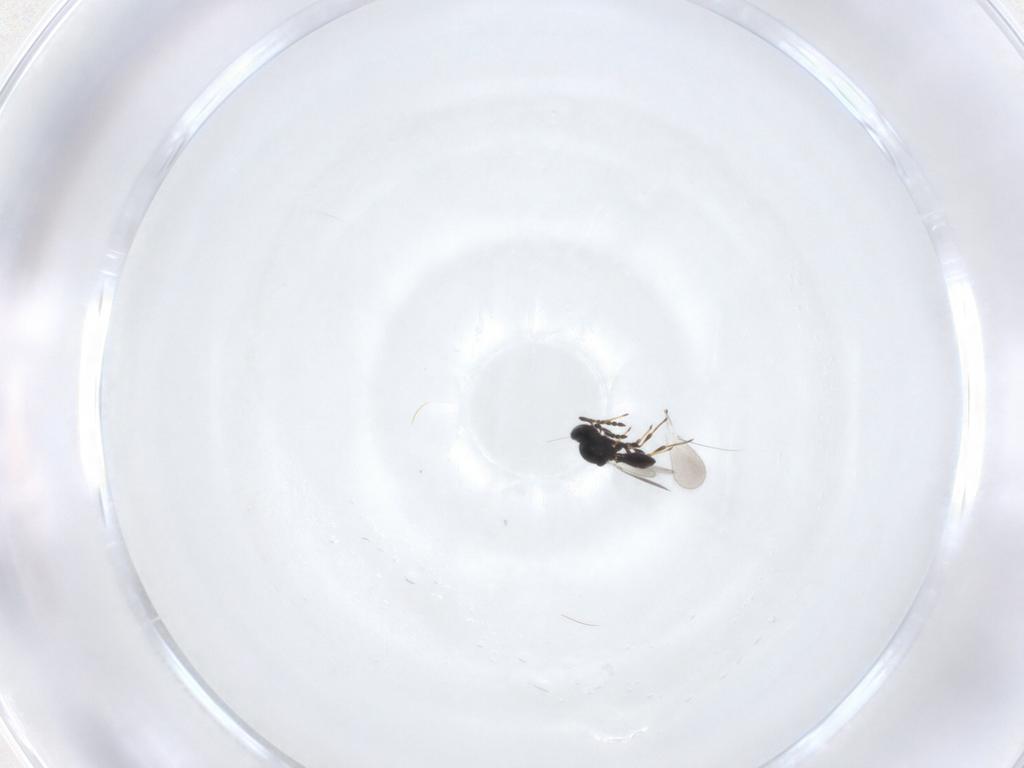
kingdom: Animalia
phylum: Arthropoda
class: Insecta
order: Hymenoptera
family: Platygastridae
